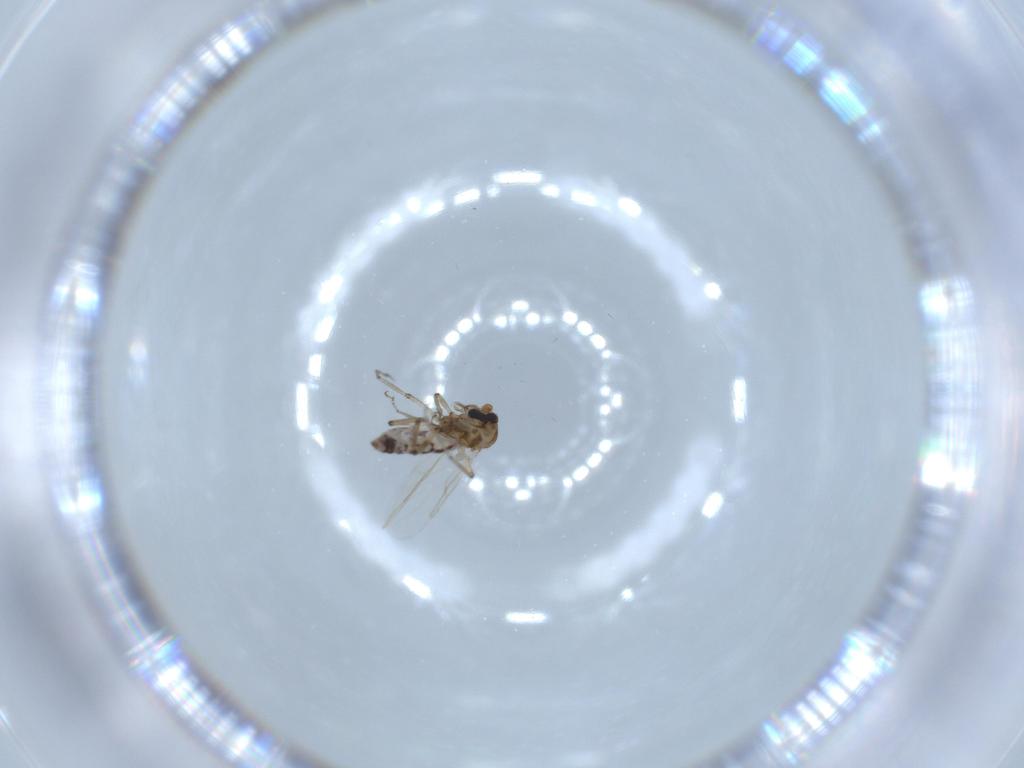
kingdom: Animalia
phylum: Arthropoda
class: Insecta
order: Diptera
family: Ceratopogonidae
